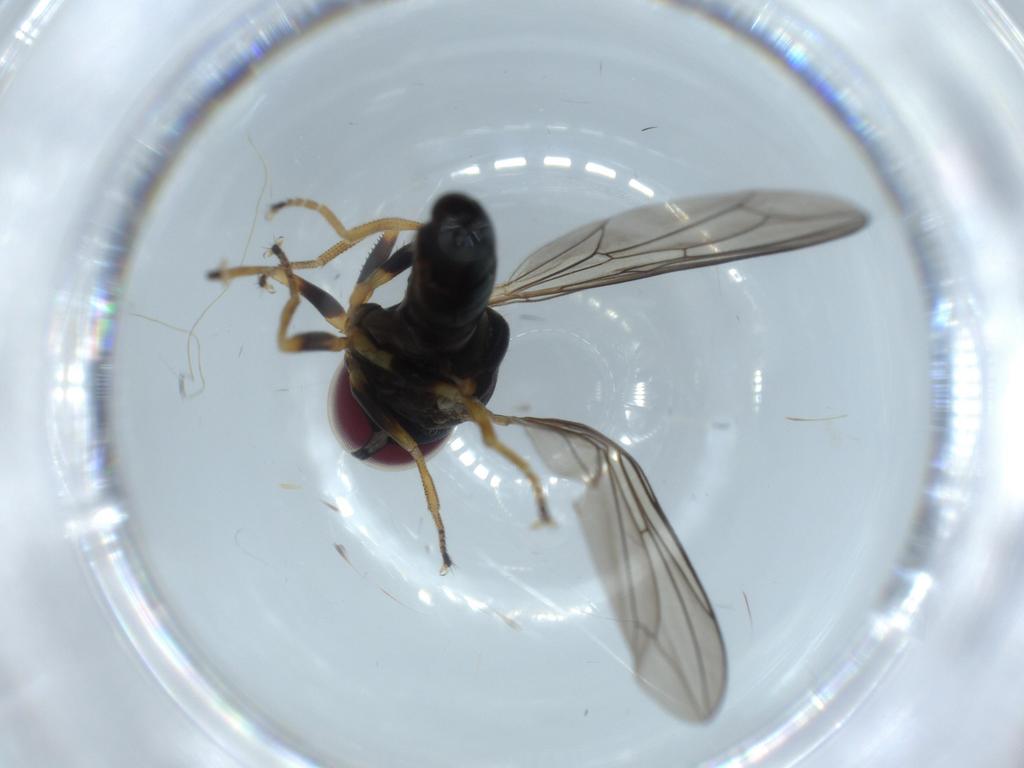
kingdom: Animalia
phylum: Arthropoda
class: Insecta
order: Diptera
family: Pipunculidae
